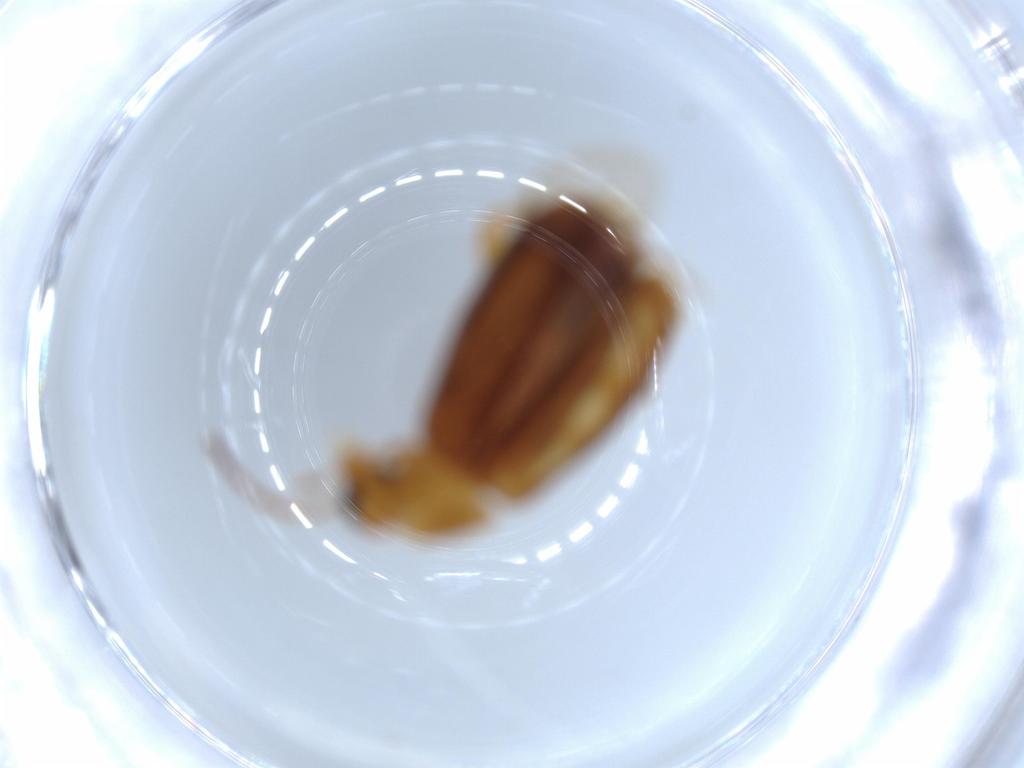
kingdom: Animalia
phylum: Arthropoda
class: Insecta
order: Coleoptera
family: Scraptiidae
